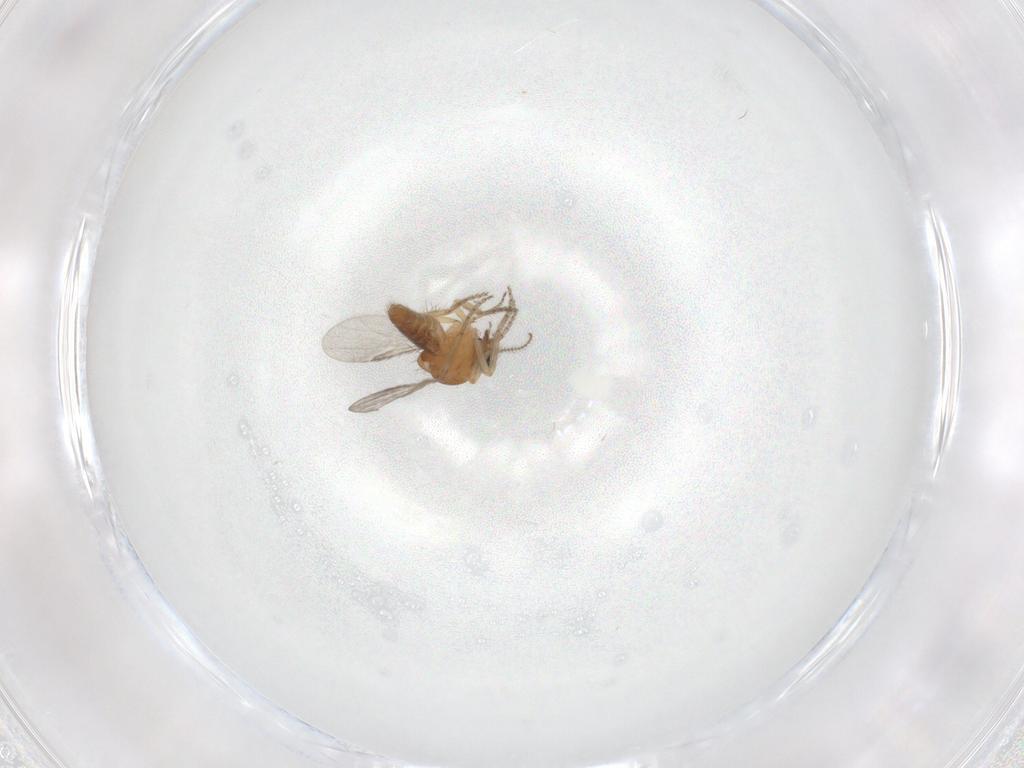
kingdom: Animalia
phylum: Arthropoda
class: Insecta
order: Diptera
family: Ceratopogonidae
